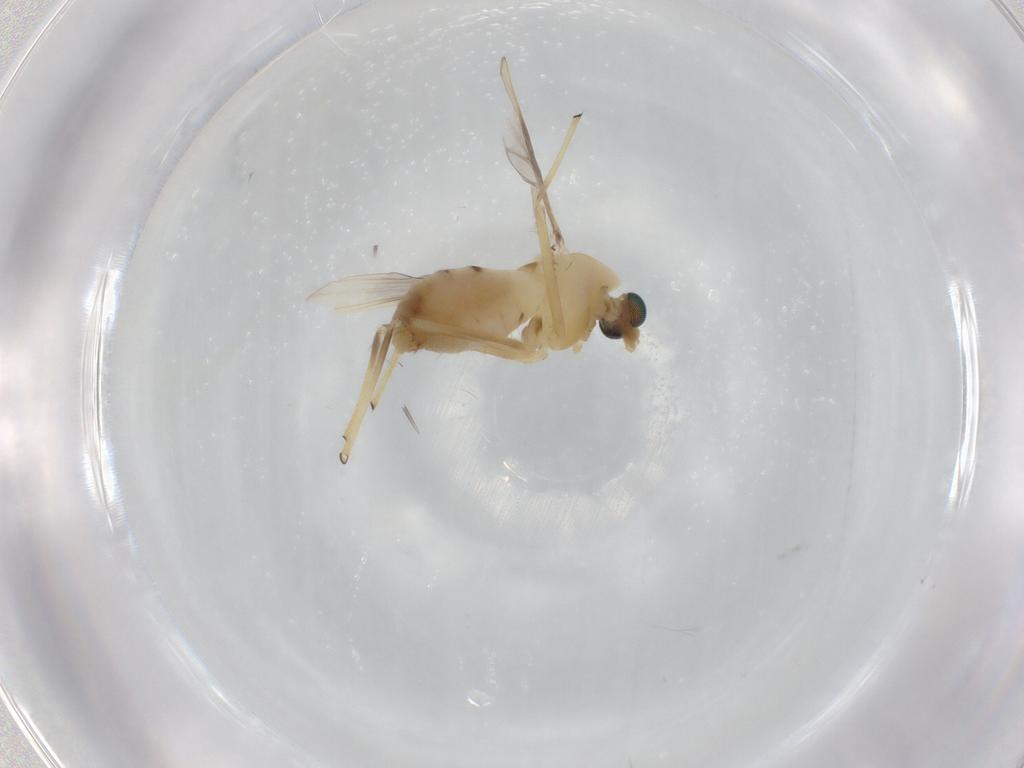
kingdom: Animalia
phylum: Arthropoda
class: Insecta
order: Diptera
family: Chironomidae
